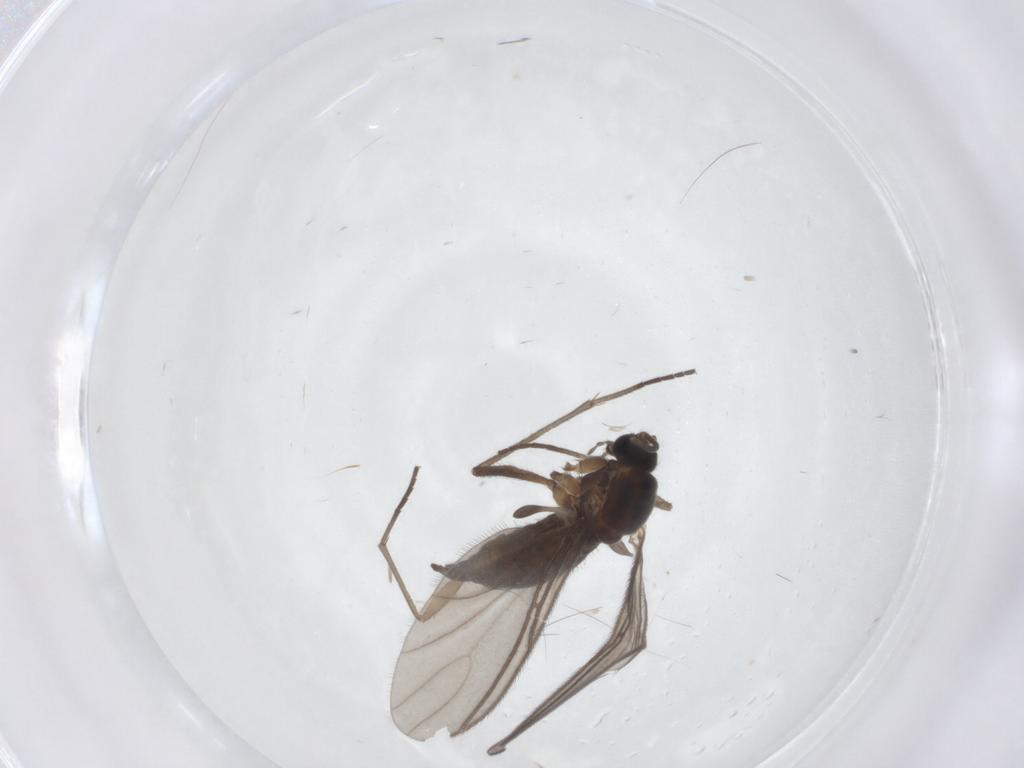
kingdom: Animalia
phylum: Arthropoda
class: Insecta
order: Diptera
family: Sciaridae
